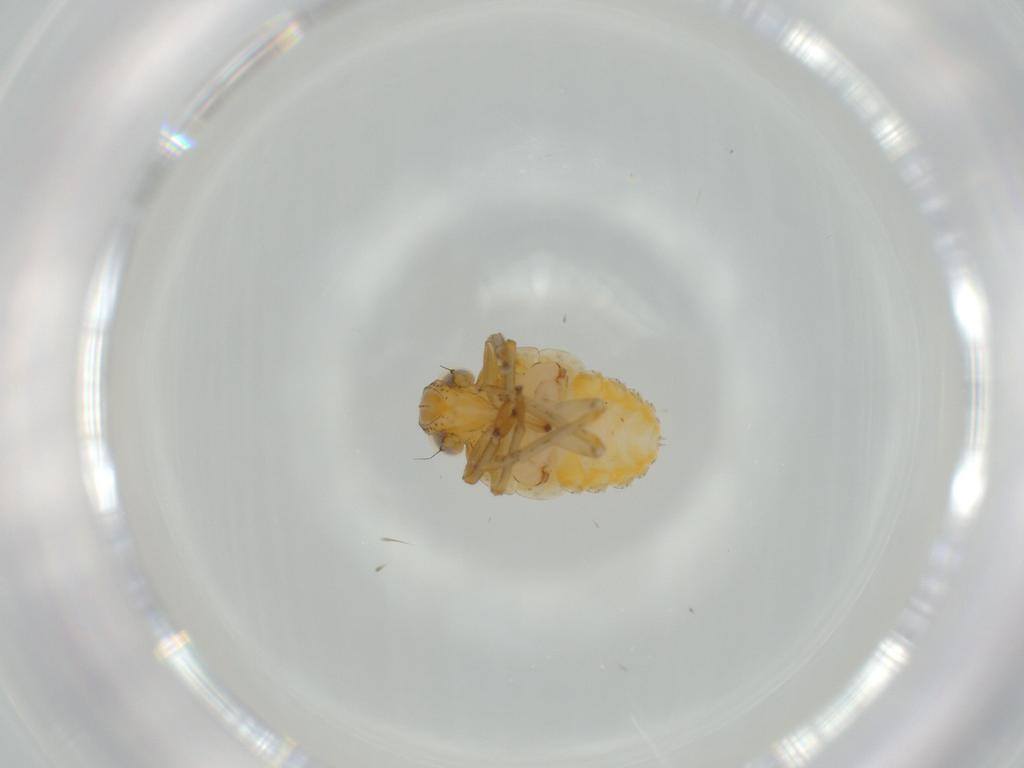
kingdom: Animalia
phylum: Arthropoda
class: Insecta
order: Hemiptera
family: Issidae
